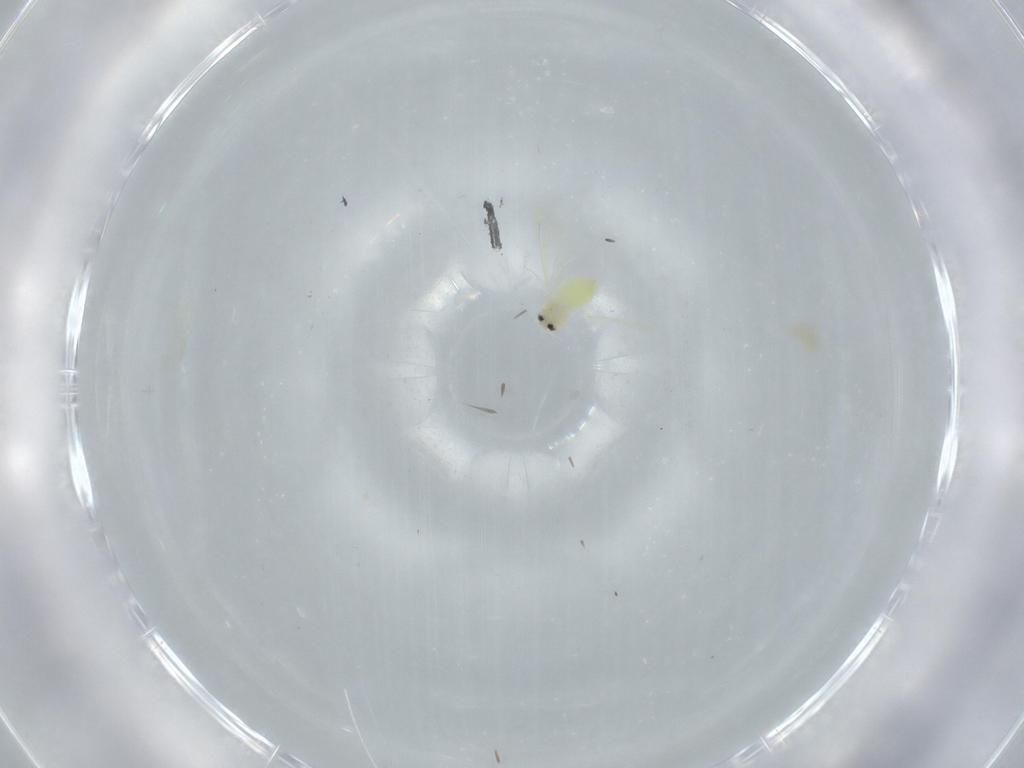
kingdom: Animalia
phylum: Arthropoda
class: Insecta
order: Hemiptera
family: Aleyrodidae
